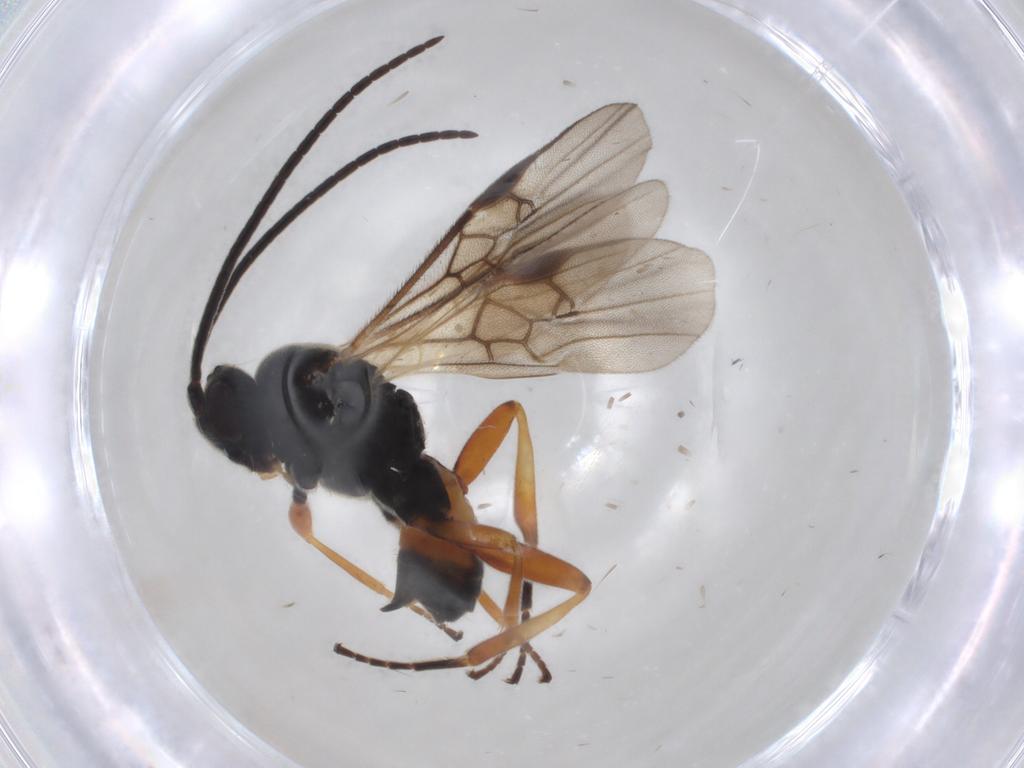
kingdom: Animalia
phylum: Arthropoda
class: Insecta
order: Hymenoptera
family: Braconidae
